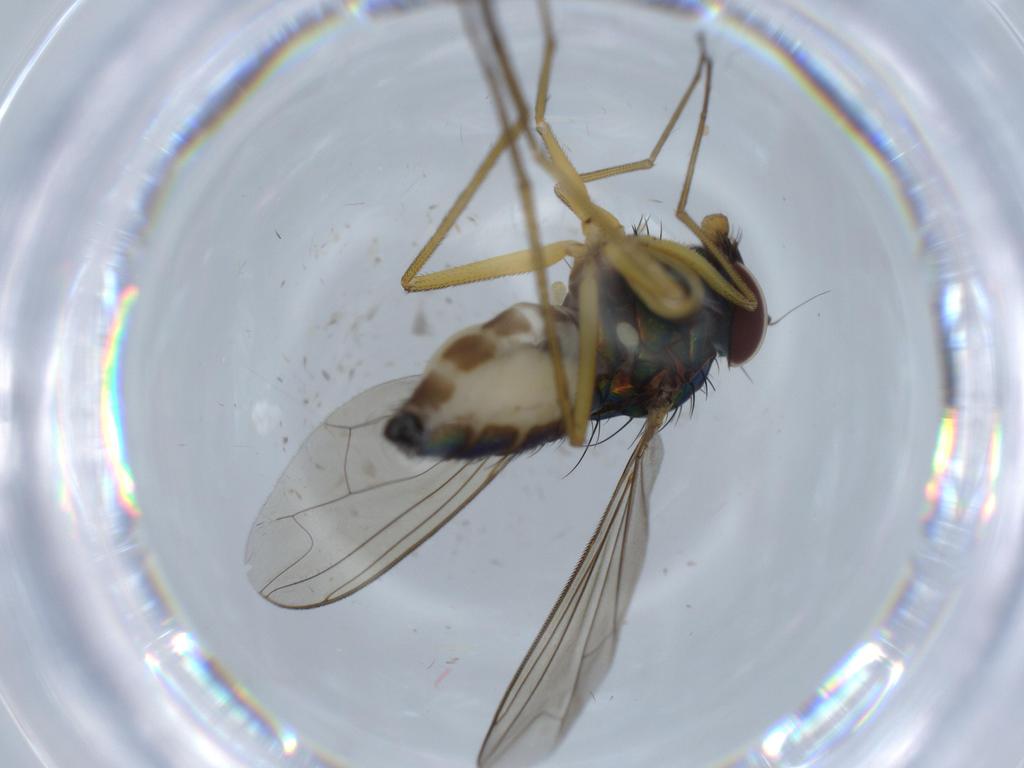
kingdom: Animalia
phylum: Arthropoda
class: Insecta
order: Diptera
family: Dolichopodidae
